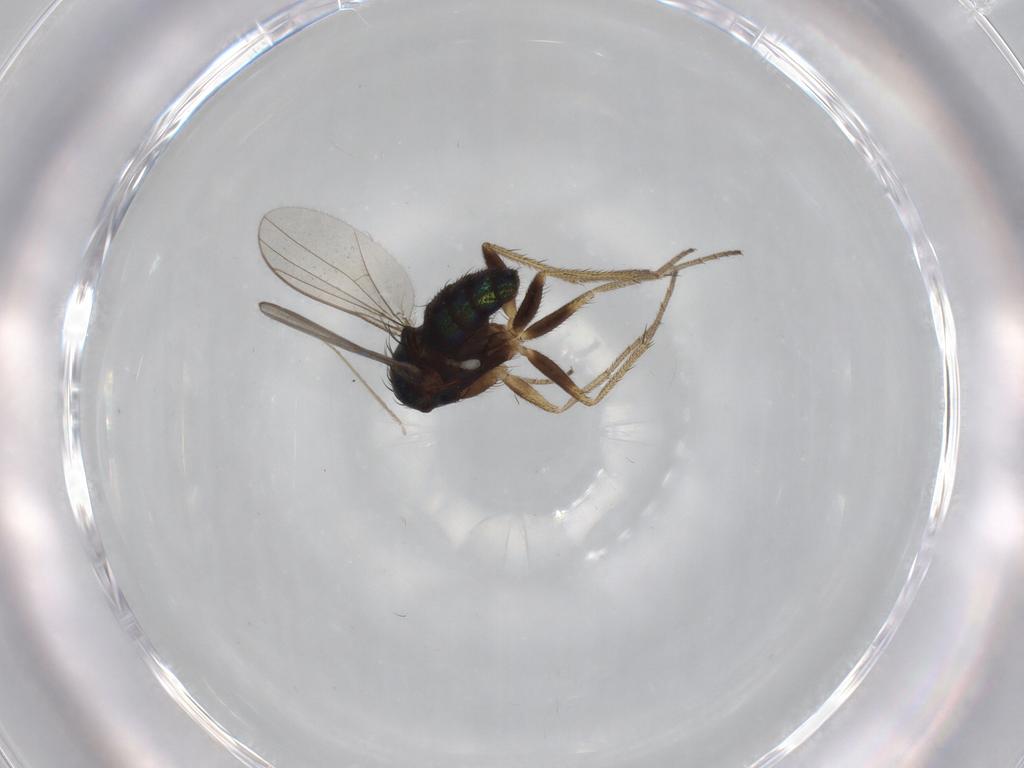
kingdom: Animalia
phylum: Arthropoda
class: Insecta
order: Diptera
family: Chironomidae
